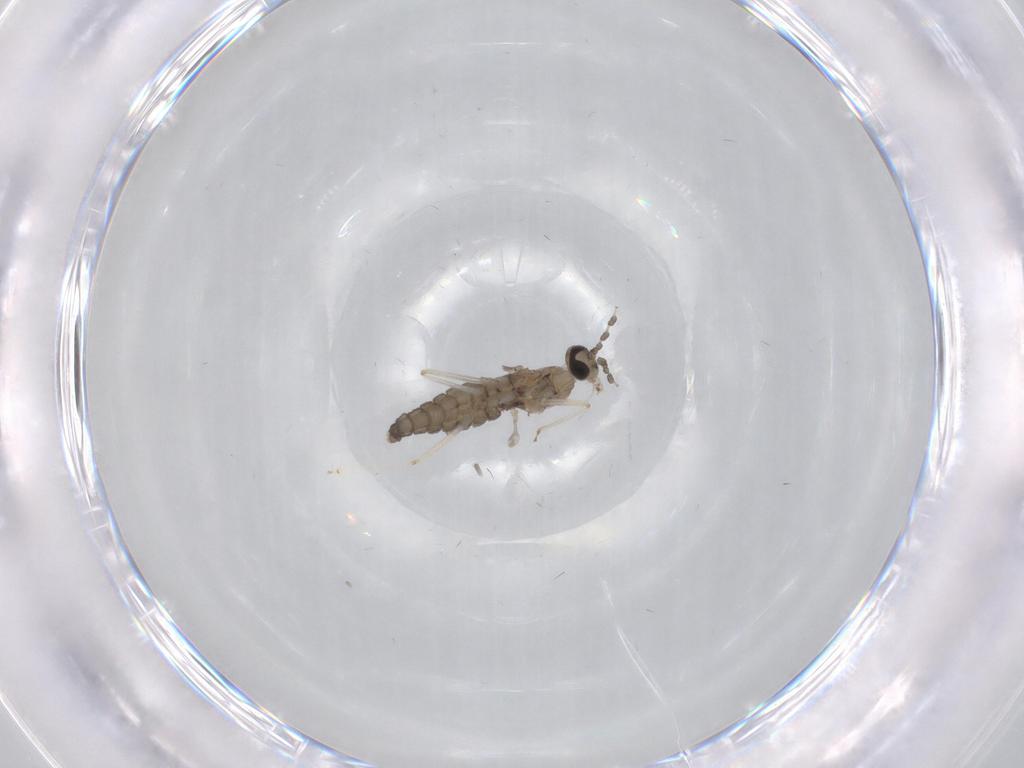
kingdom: Animalia
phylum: Arthropoda
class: Insecta
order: Diptera
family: Cecidomyiidae
